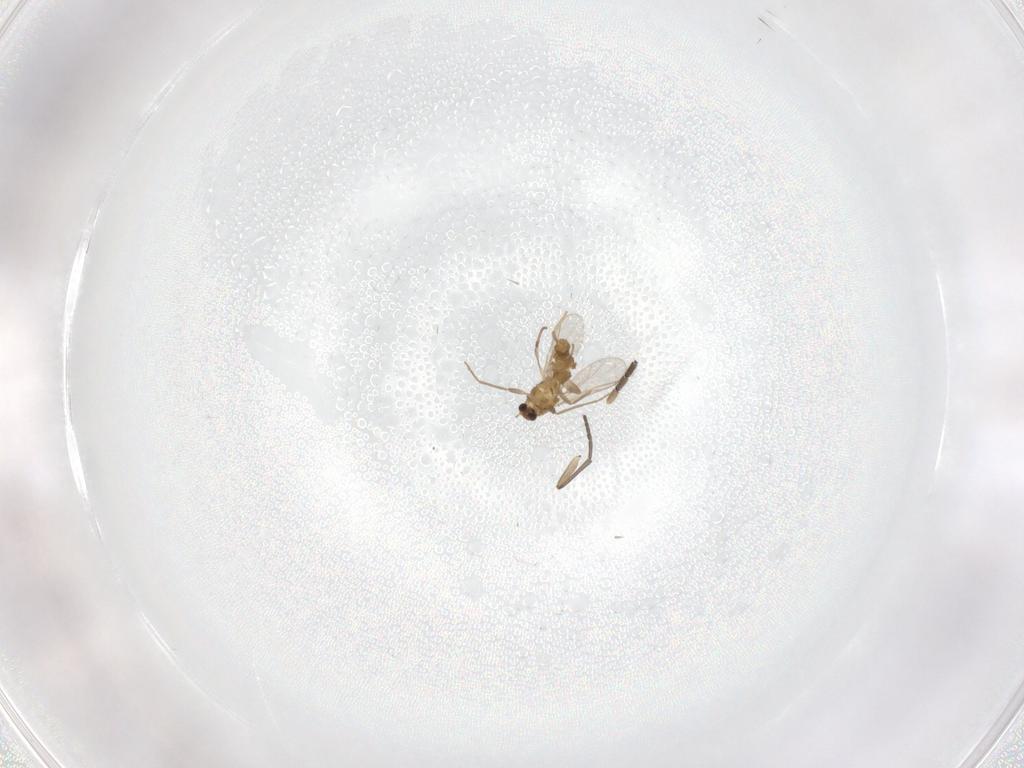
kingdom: Animalia
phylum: Arthropoda
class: Insecta
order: Diptera
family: Chironomidae
